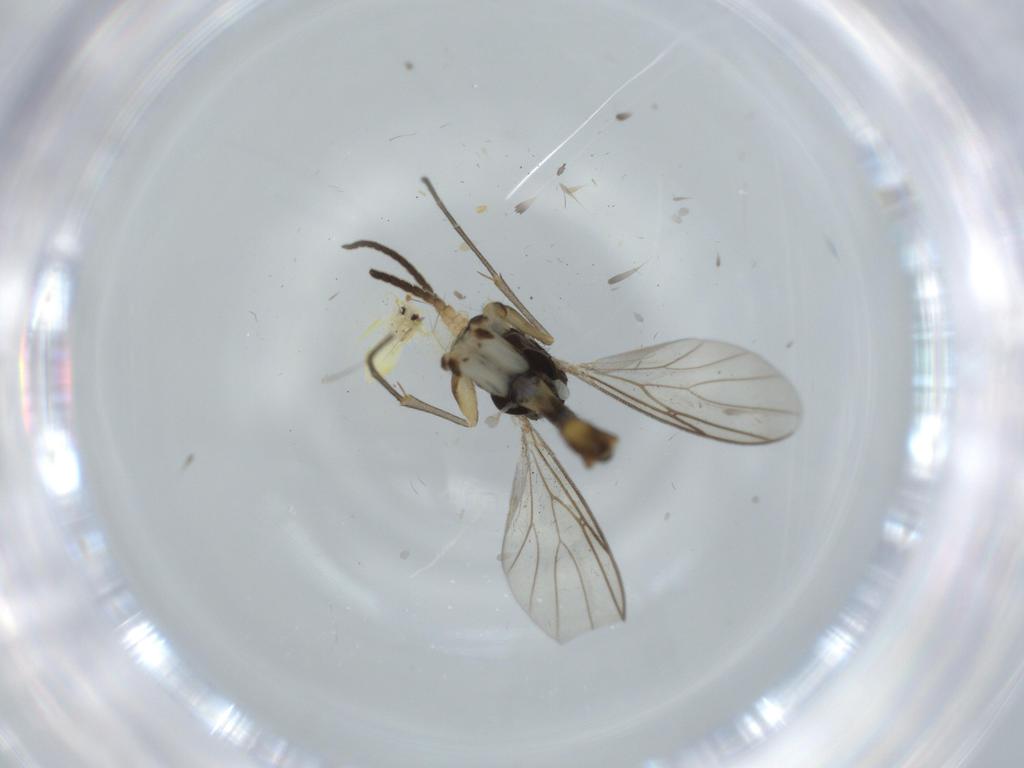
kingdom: Animalia
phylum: Arthropoda
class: Insecta
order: Diptera
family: Mycetophilidae
